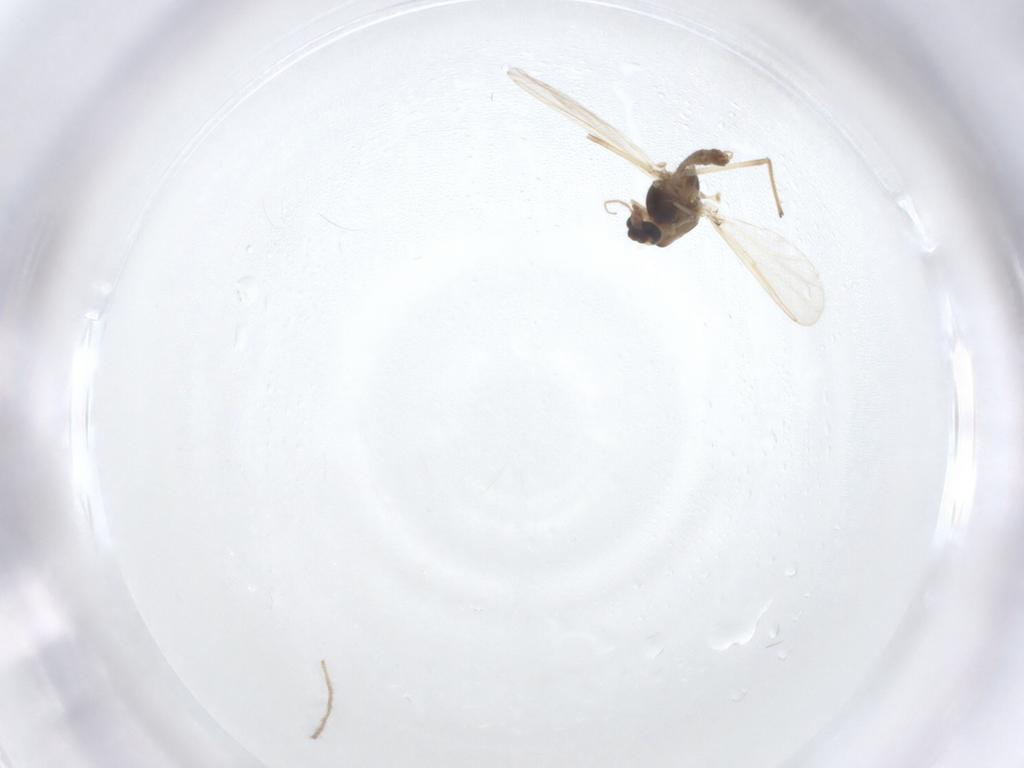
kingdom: Animalia
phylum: Arthropoda
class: Insecta
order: Diptera
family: Chironomidae
